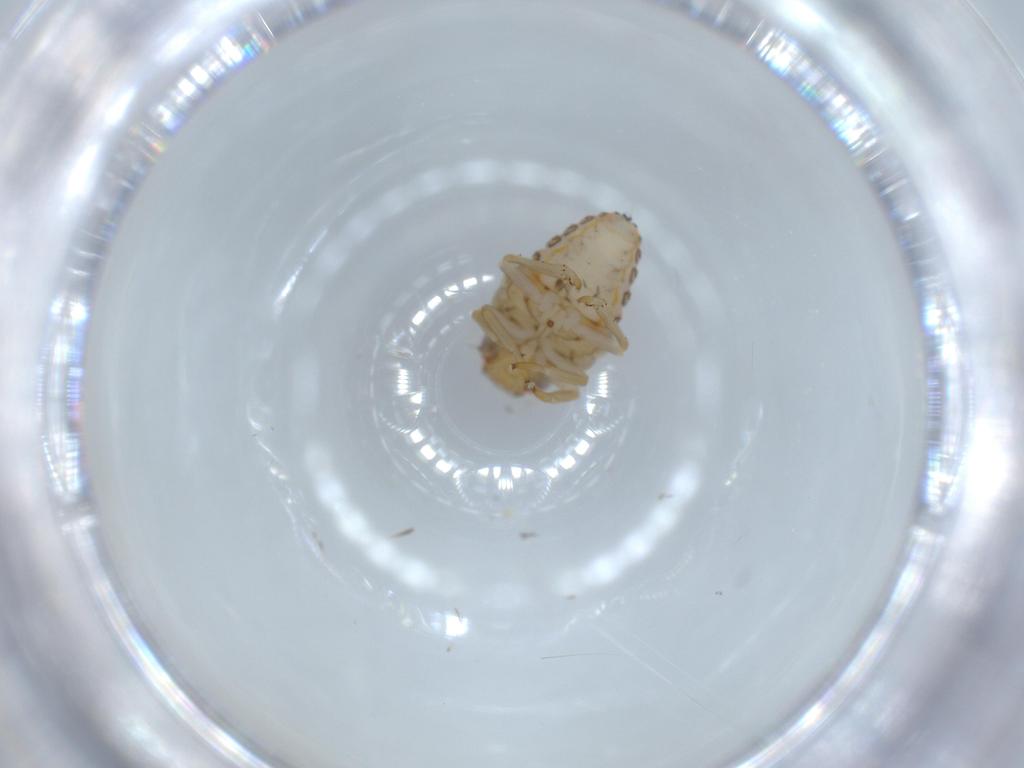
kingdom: Animalia
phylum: Arthropoda
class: Insecta
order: Hemiptera
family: Issidae
